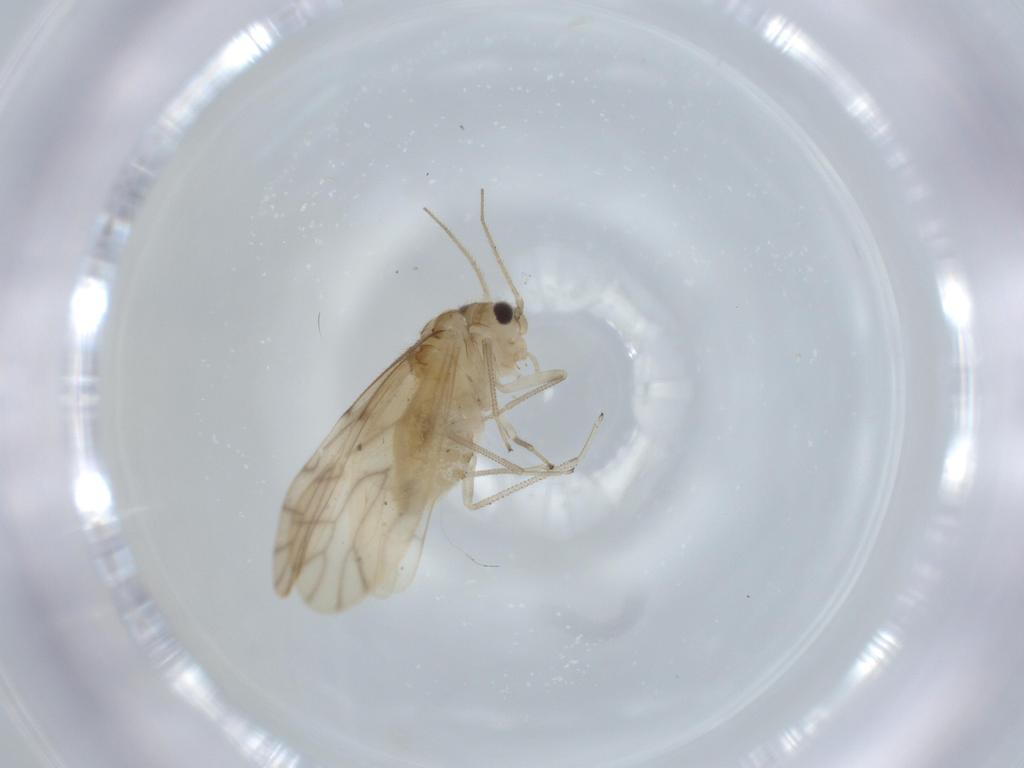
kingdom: Animalia
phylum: Arthropoda
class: Insecta
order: Psocodea
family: Caeciliusidae
